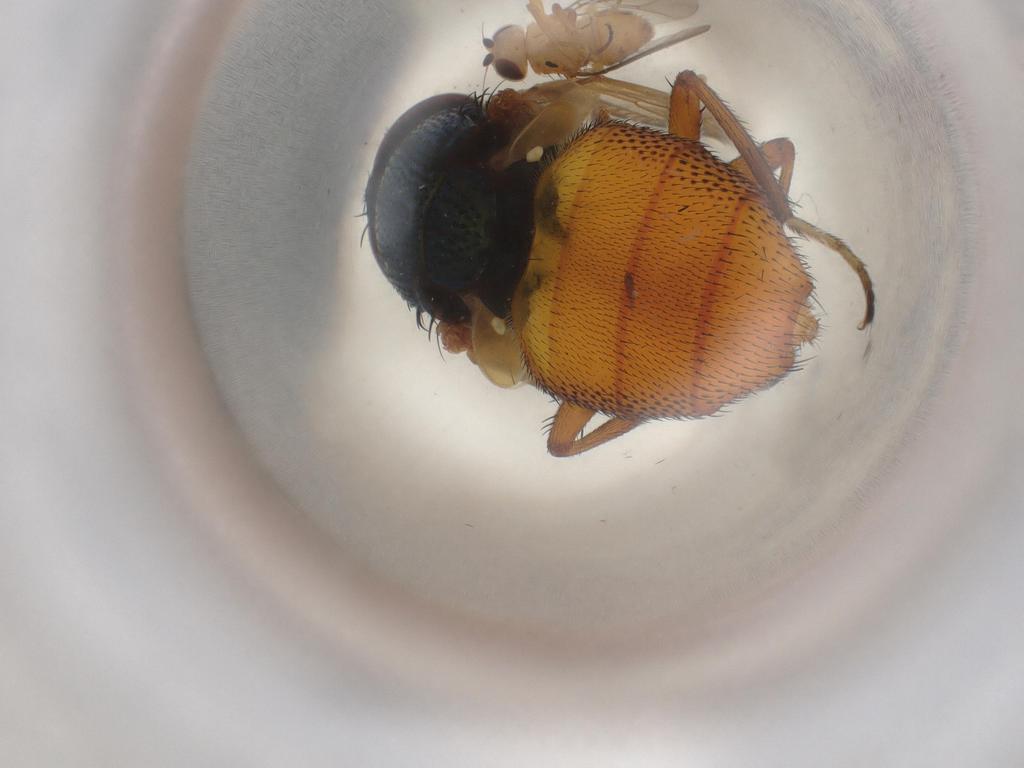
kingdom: Animalia
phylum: Arthropoda
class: Insecta
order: Diptera
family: Calliphoridae
